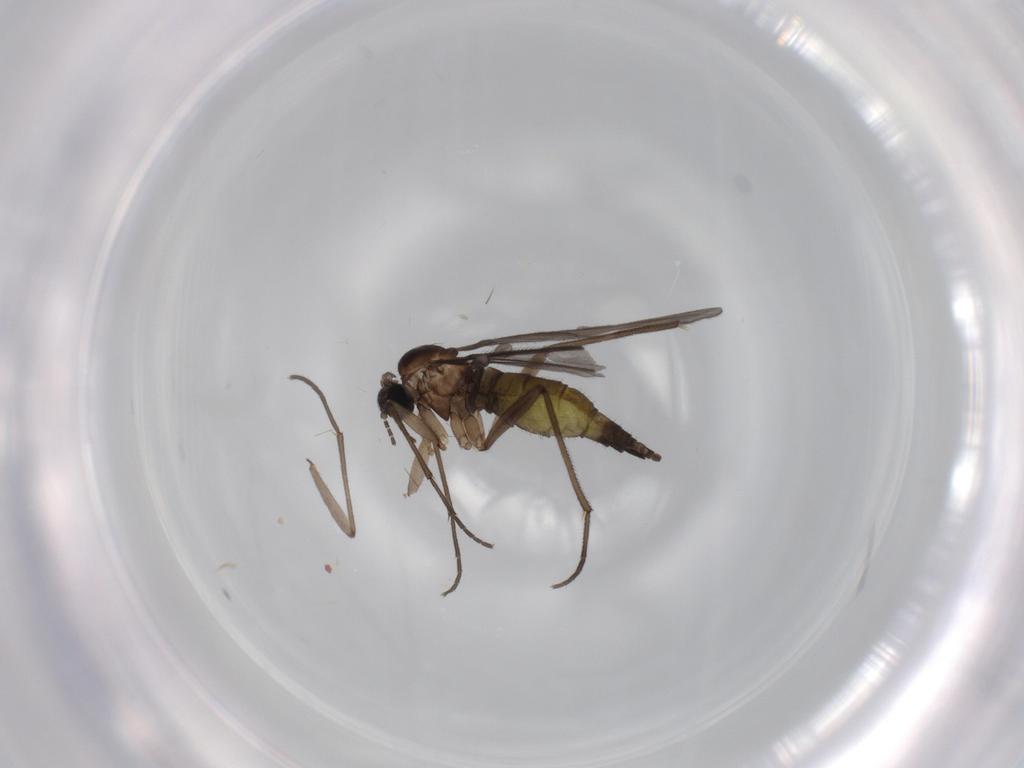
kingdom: Animalia
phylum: Arthropoda
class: Insecta
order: Diptera
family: Sciaridae
